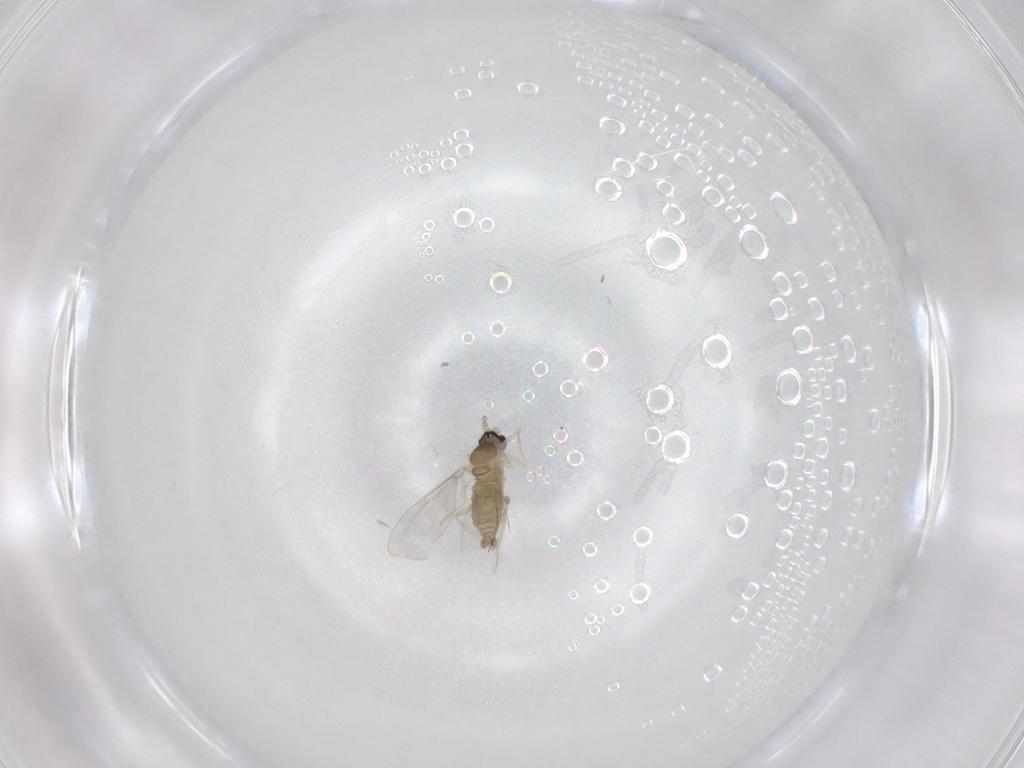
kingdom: Animalia
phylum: Arthropoda
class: Insecta
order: Diptera
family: Cecidomyiidae
